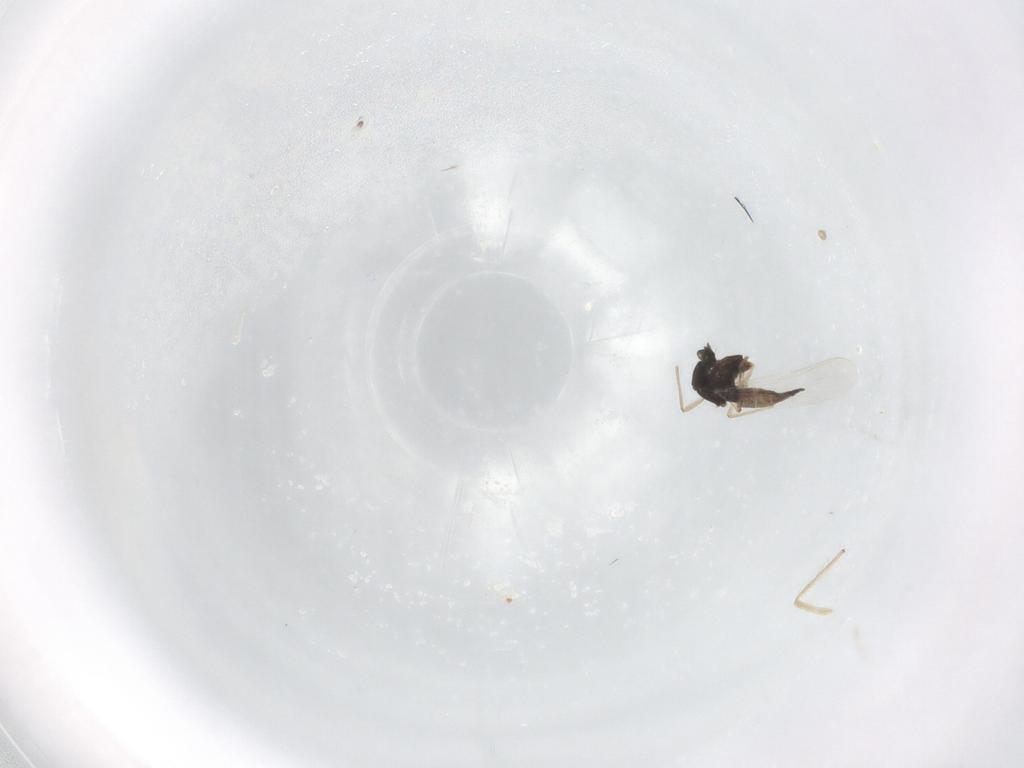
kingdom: Animalia
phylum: Arthropoda
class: Insecta
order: Diptera
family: Chironomidae
